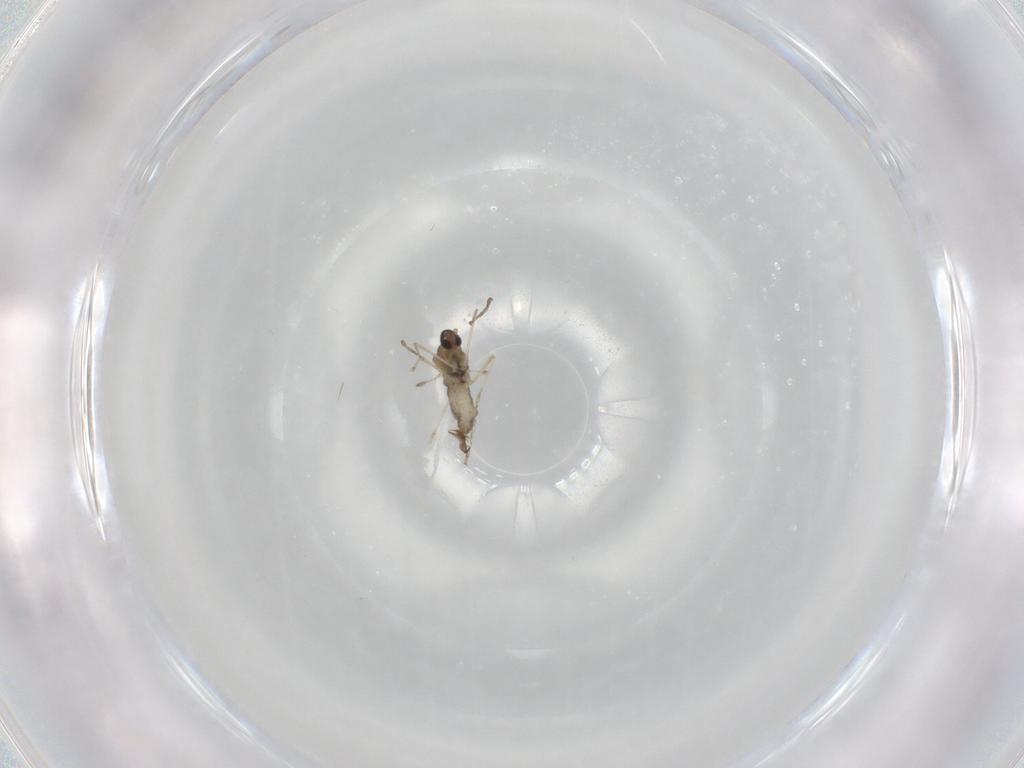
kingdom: Animalia
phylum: Arthropoda
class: Insecta
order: Diptera
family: Cecidomyiidae
